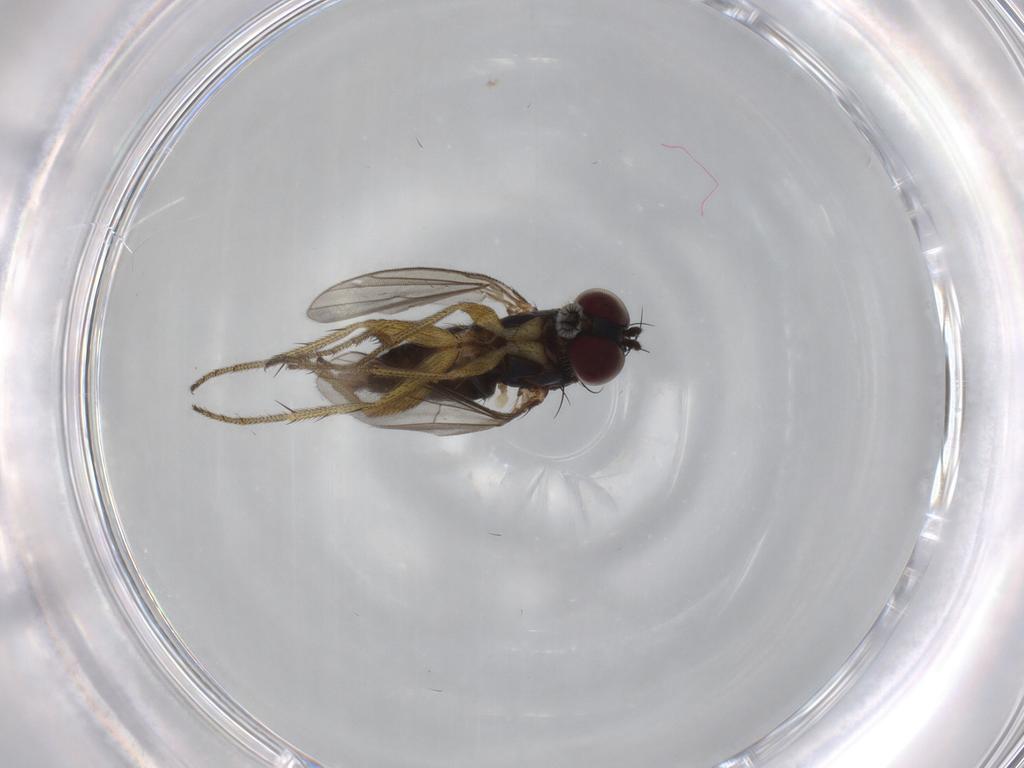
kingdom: Animalia
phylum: Arthropoda
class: Insecta
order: Diptera
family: Dolichopodidae
